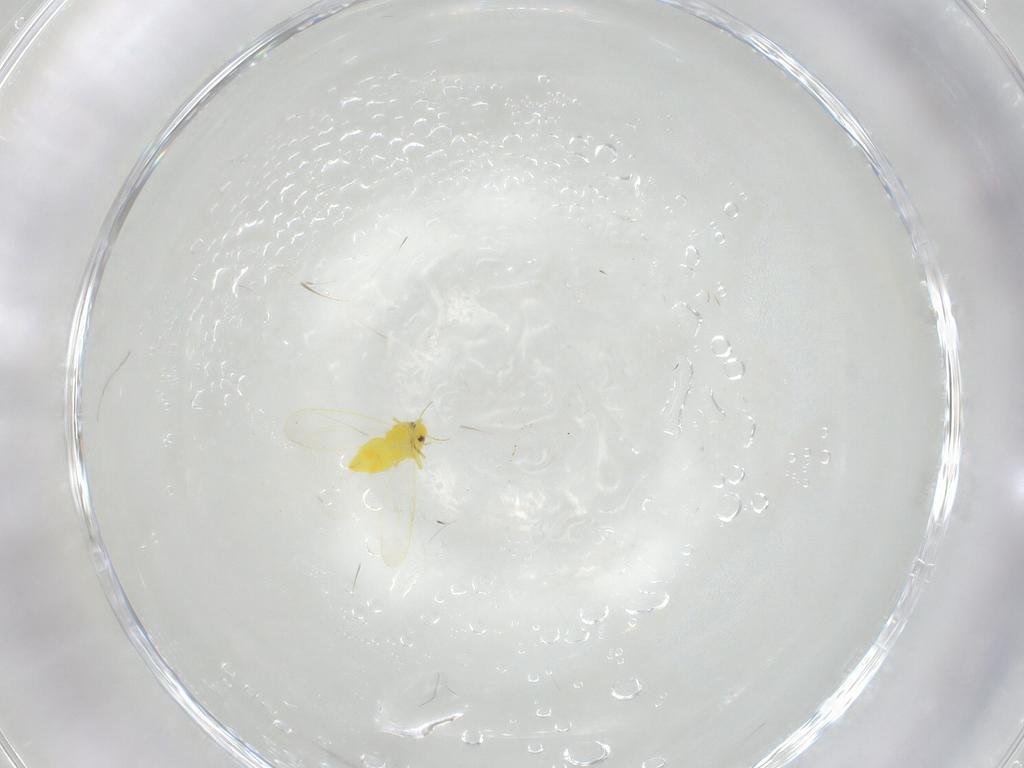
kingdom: Animalia
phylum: Arthropoda
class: Insecta
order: Hemiptera
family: Aleyrodidae
